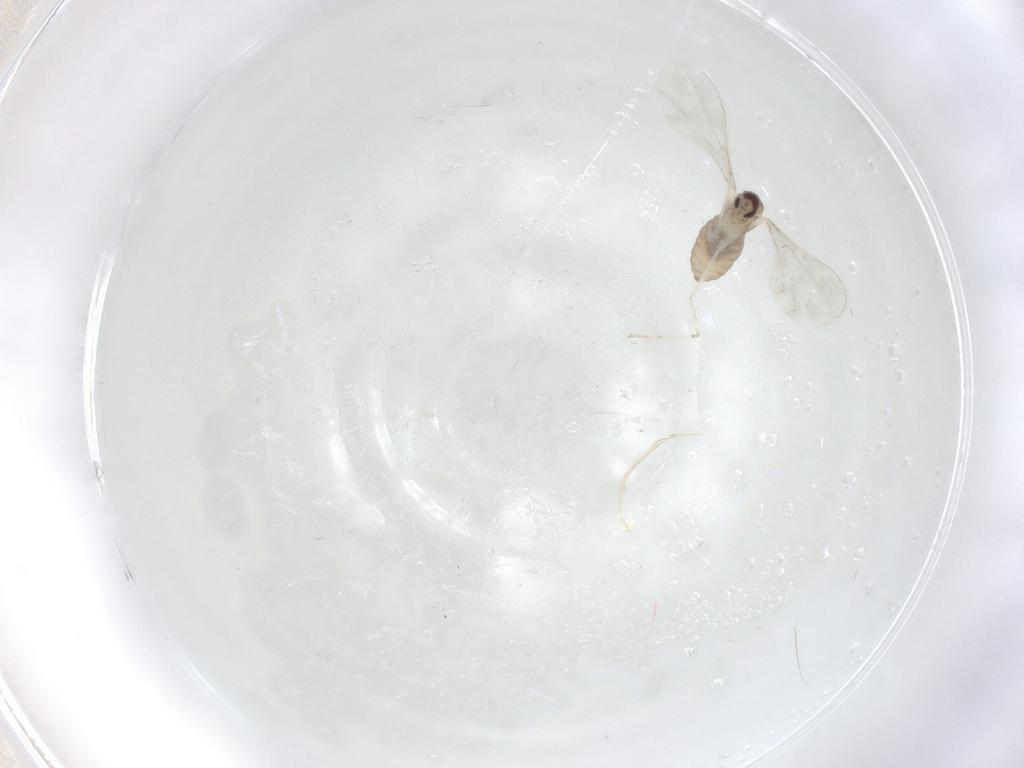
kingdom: Animalia
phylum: Arthropoda
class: Insecta
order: Diptera
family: Cecidomyiidae
